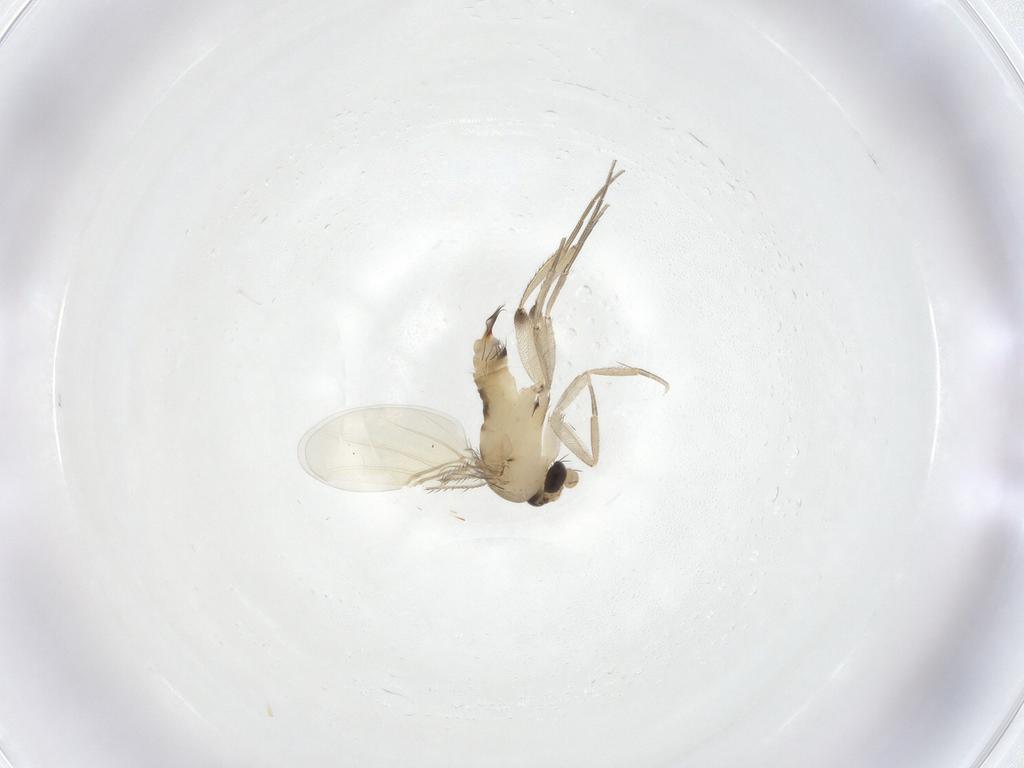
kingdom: Animalia
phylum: Arthropoda
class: Insecta
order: Diptera
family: Phoridae
